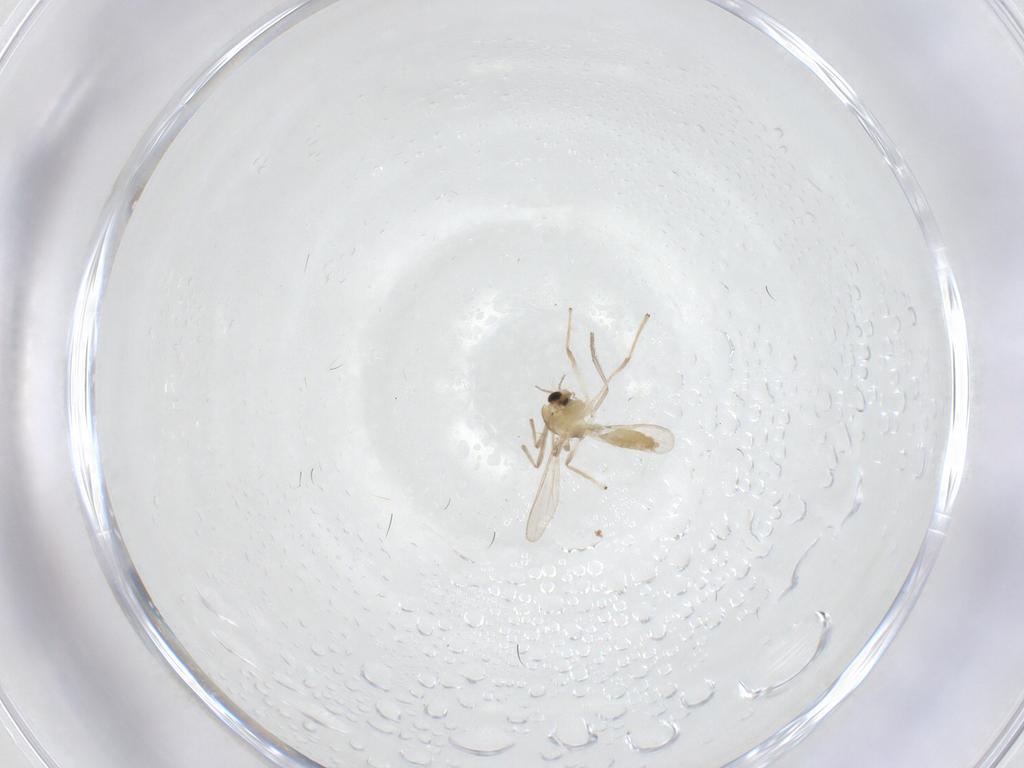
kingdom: Animalia
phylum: Arthropoda
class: Insecta
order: Diptera
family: Chironomidae
